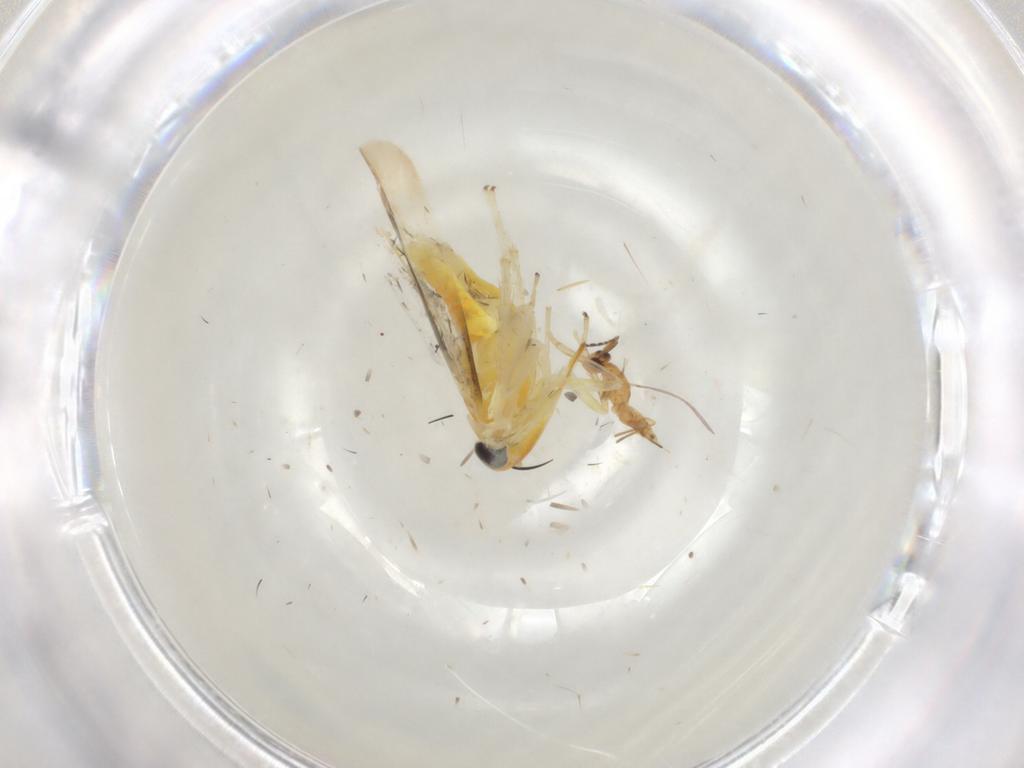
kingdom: Animalia
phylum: Arthropoda
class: Insecta
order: Hemiptera
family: Cicadellidae
